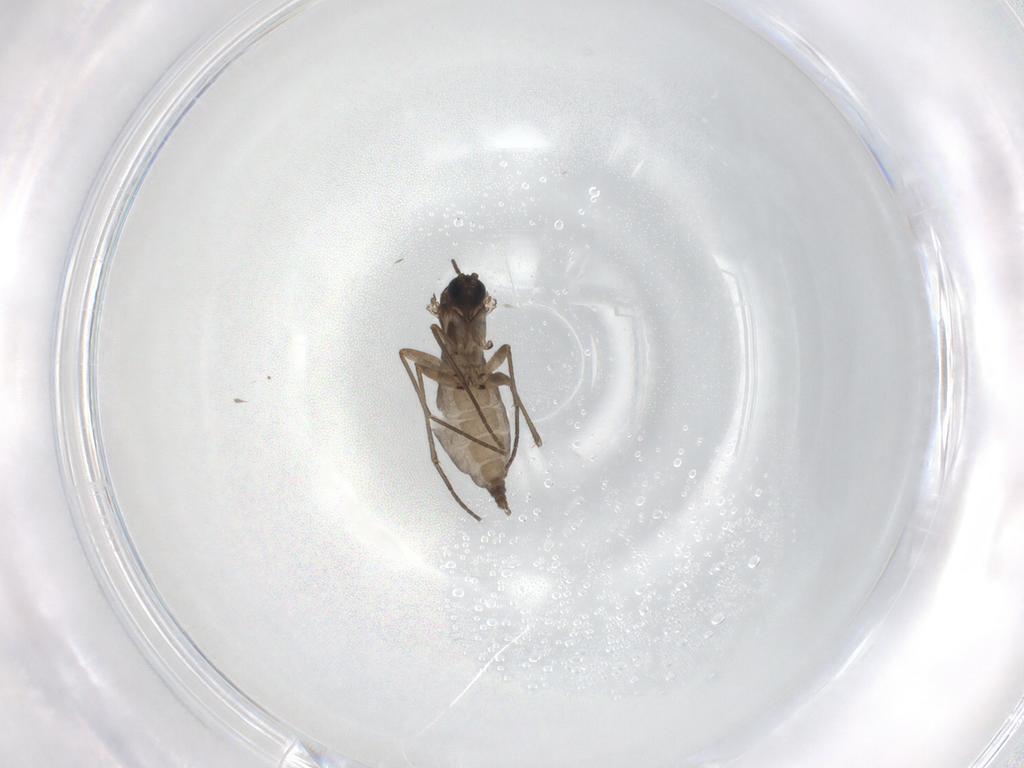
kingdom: Animalia
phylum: Arthropoda
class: Insecta
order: Diptera
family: Sciaridae
